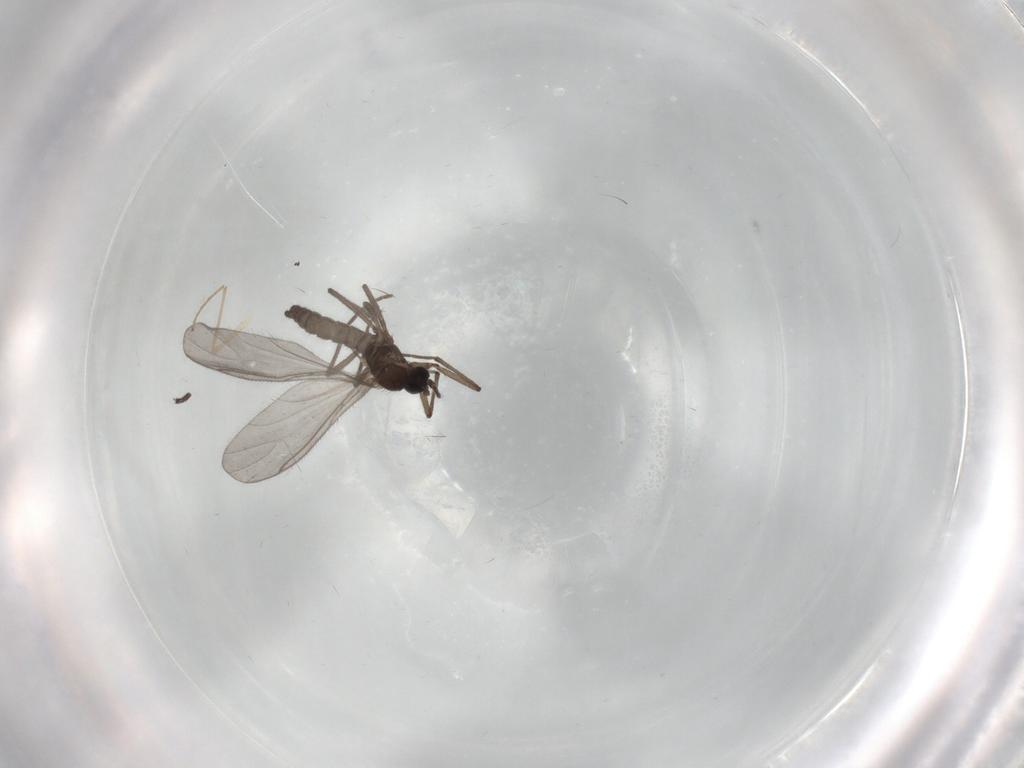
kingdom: Animalia
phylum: Arthropoda
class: Insecta
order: Diptera
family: Sciaridae
